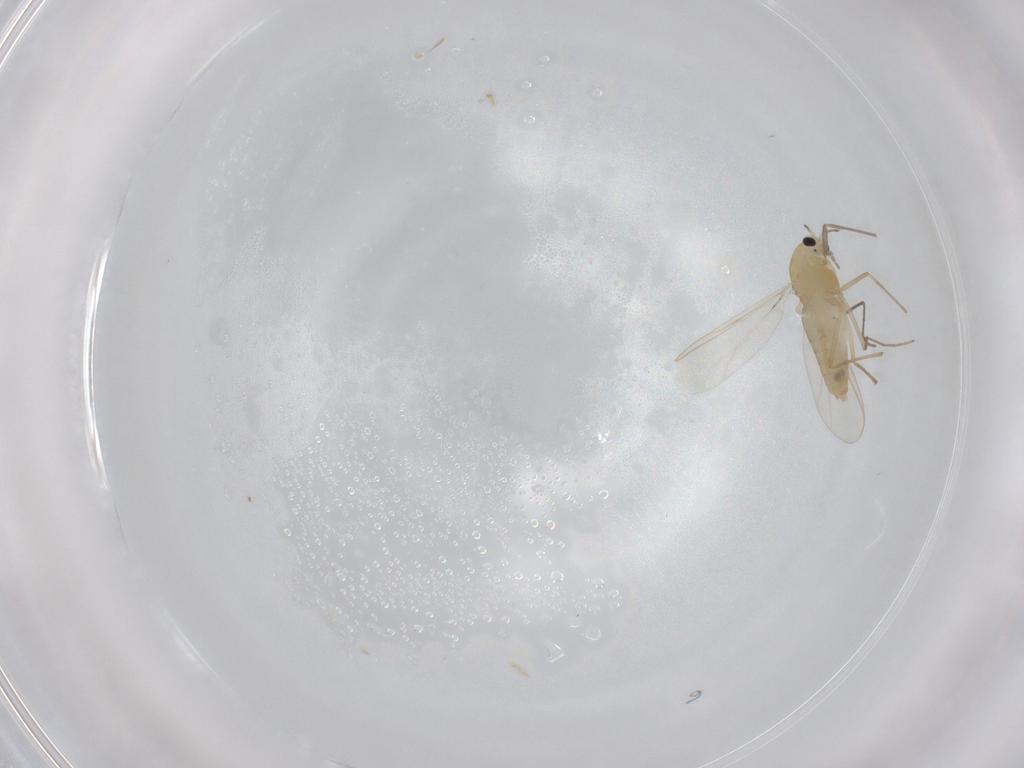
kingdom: Animalia
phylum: Arthropoda
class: Insecta
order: Diptera
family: Chironomidae
